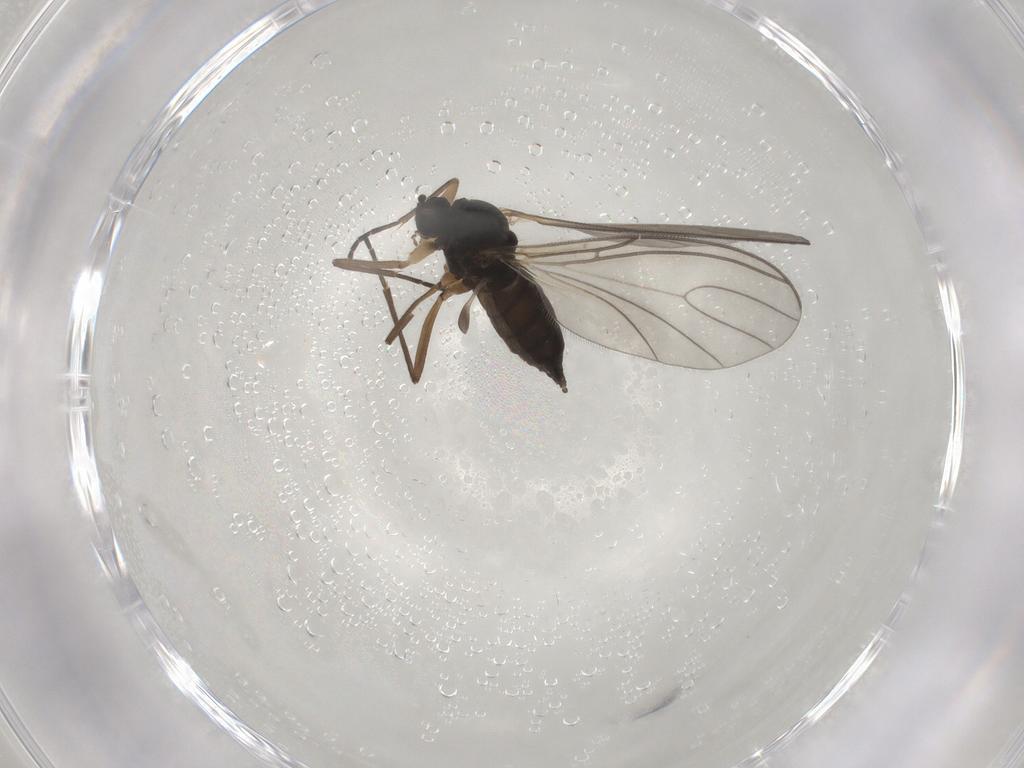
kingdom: Animalia
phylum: Arthropoda
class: Insecta
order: Diptera
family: Sciaridae
